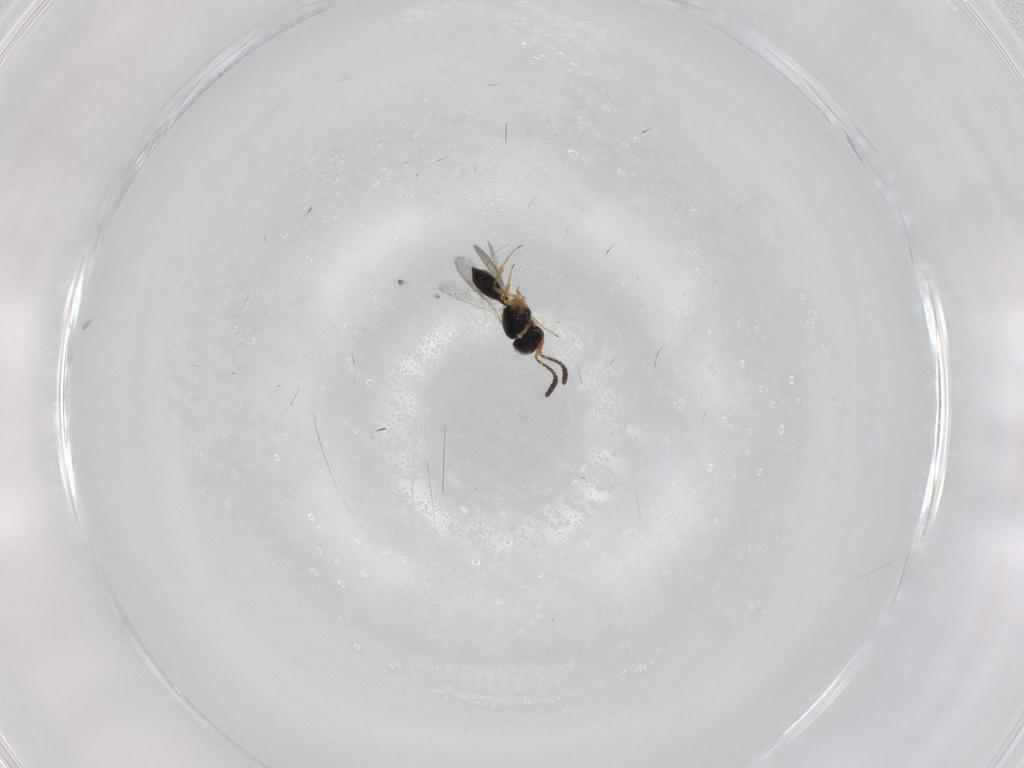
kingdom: Animalia
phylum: Arthropoda
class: Insecta
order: Hymenoptera
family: Scelionidae
